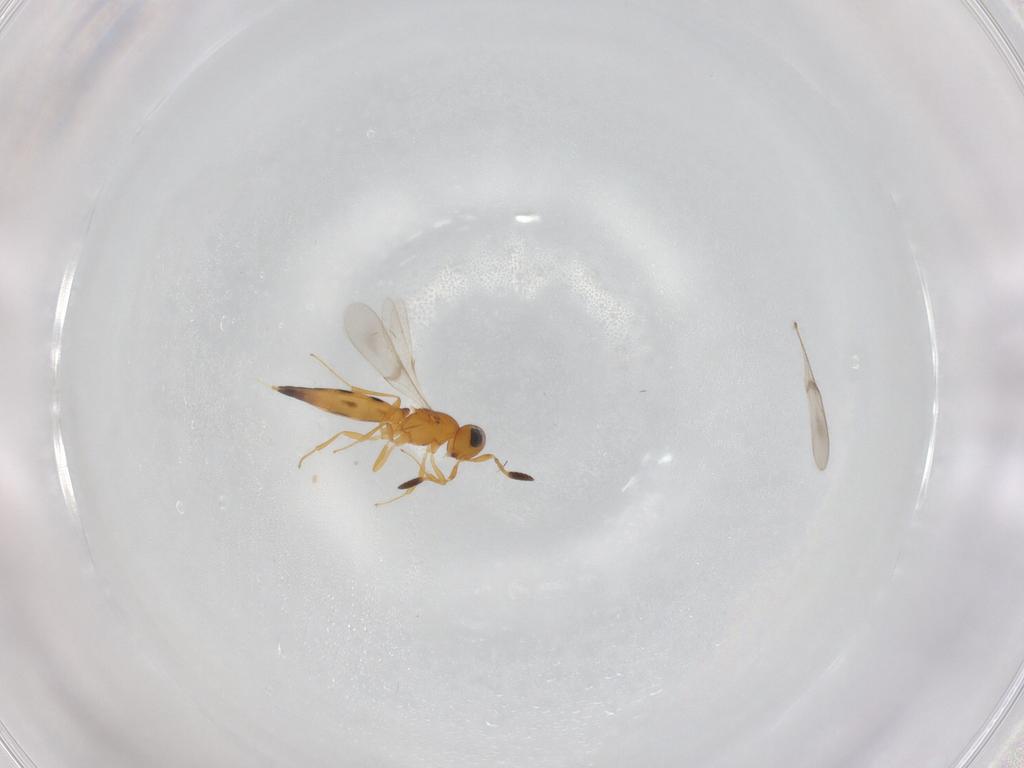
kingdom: Animalia
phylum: Arthropoda
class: Insecta
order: Hymenoptera
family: Scelionidae
